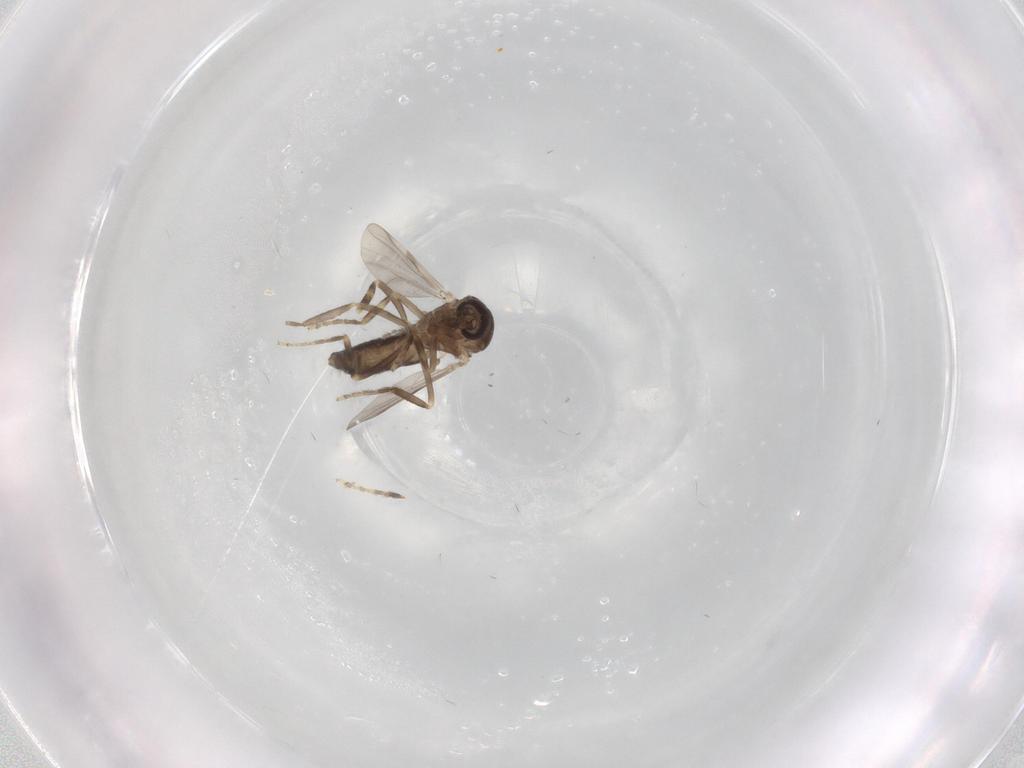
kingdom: Animalia
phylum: Arthropoda
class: Insecta
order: Diptera
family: Ceratopogonidae
